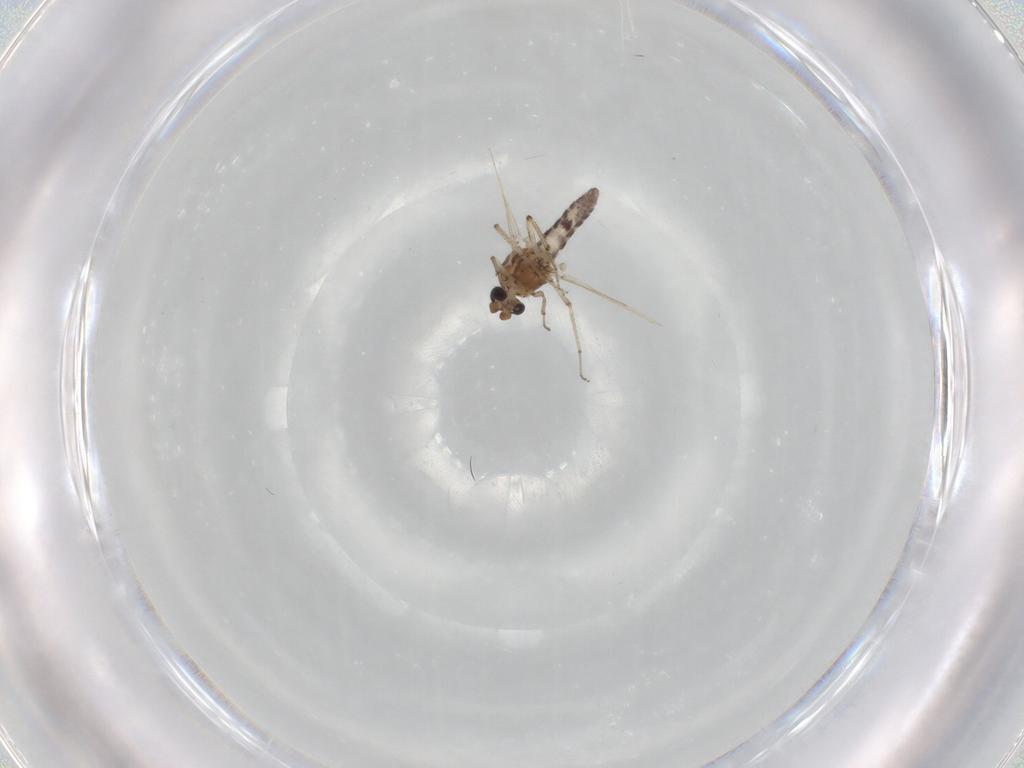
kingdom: Animalia
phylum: Arthropoda
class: Insecta
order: Diptera
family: Ceratopogonidae
